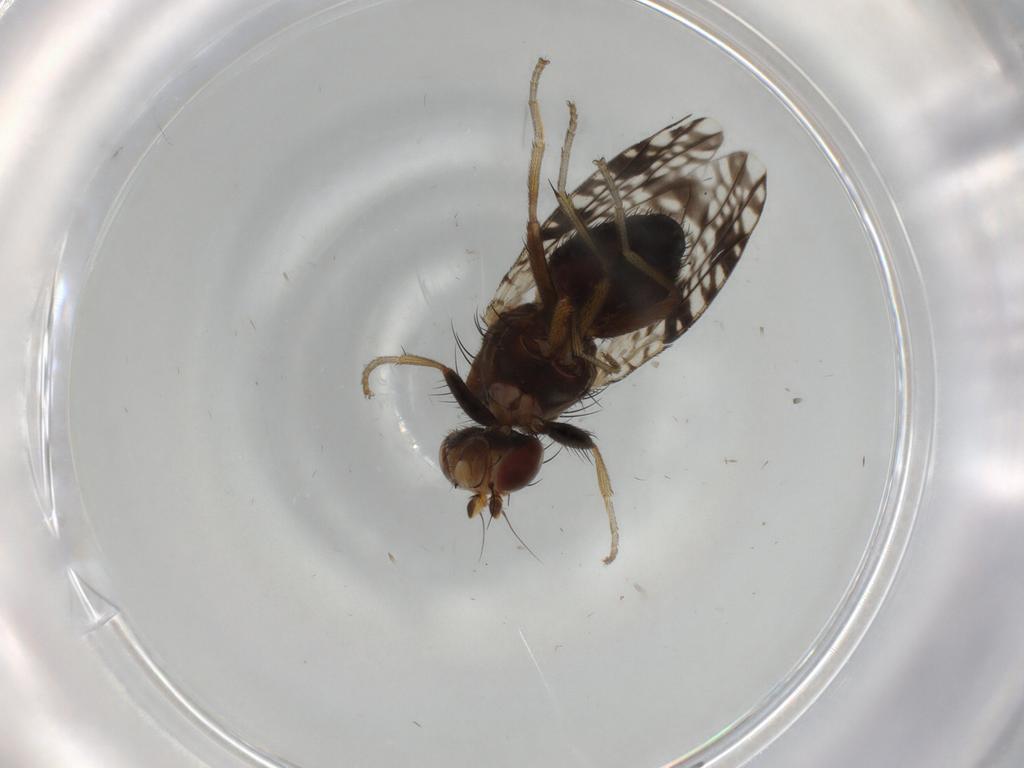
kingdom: Animalia
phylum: Arthropoda
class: Insecta
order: Diptera
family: Tephritidae
